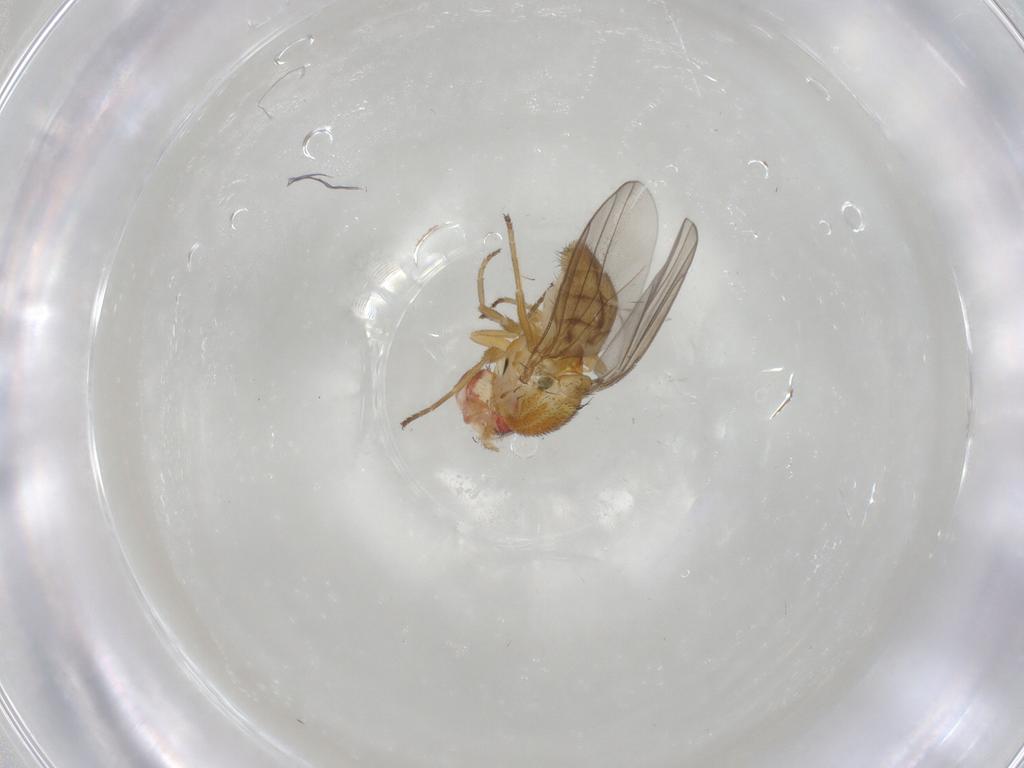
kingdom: Animalia
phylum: Arthropoda
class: Insecta
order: Diptera
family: Chloropidae
